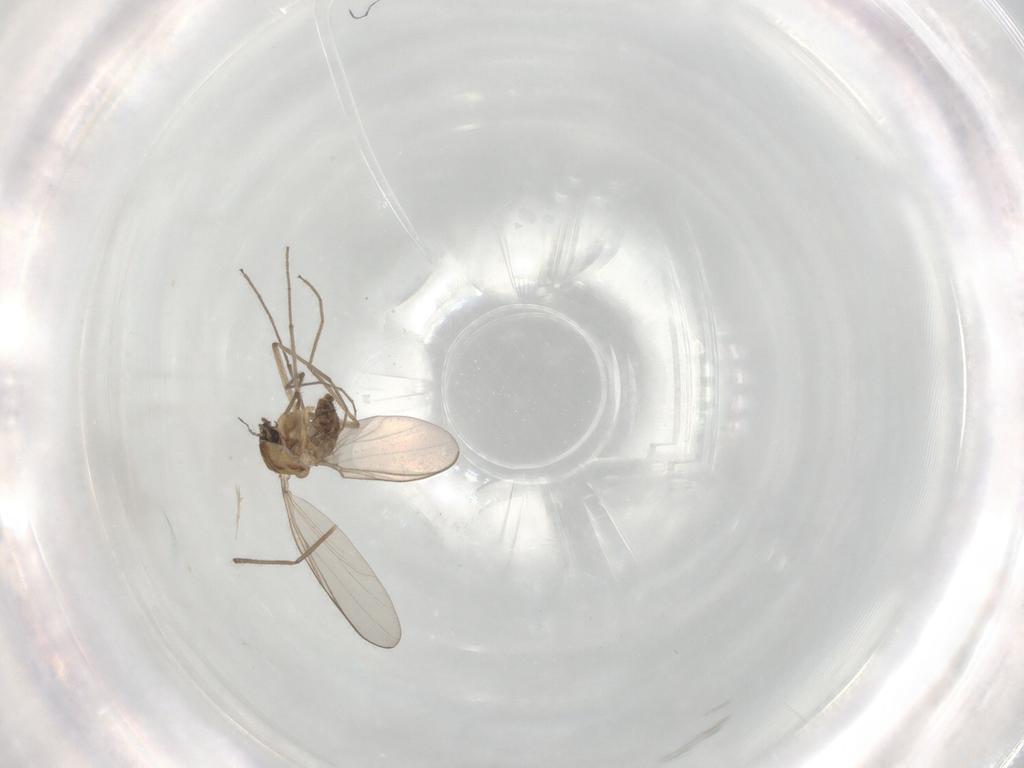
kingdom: Animalia
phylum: Arthropoda
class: Insecta
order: Diptera
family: Chironomidae
